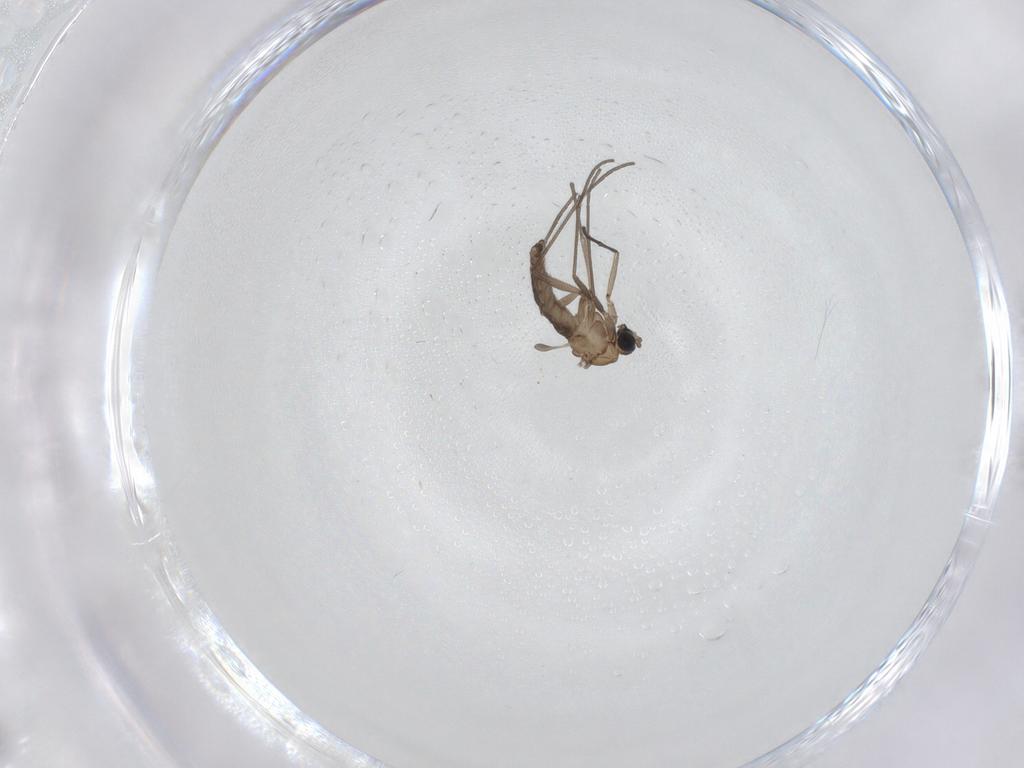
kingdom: Animalia
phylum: Arthropoda
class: Insecta
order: Diptera
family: Sciaridae
